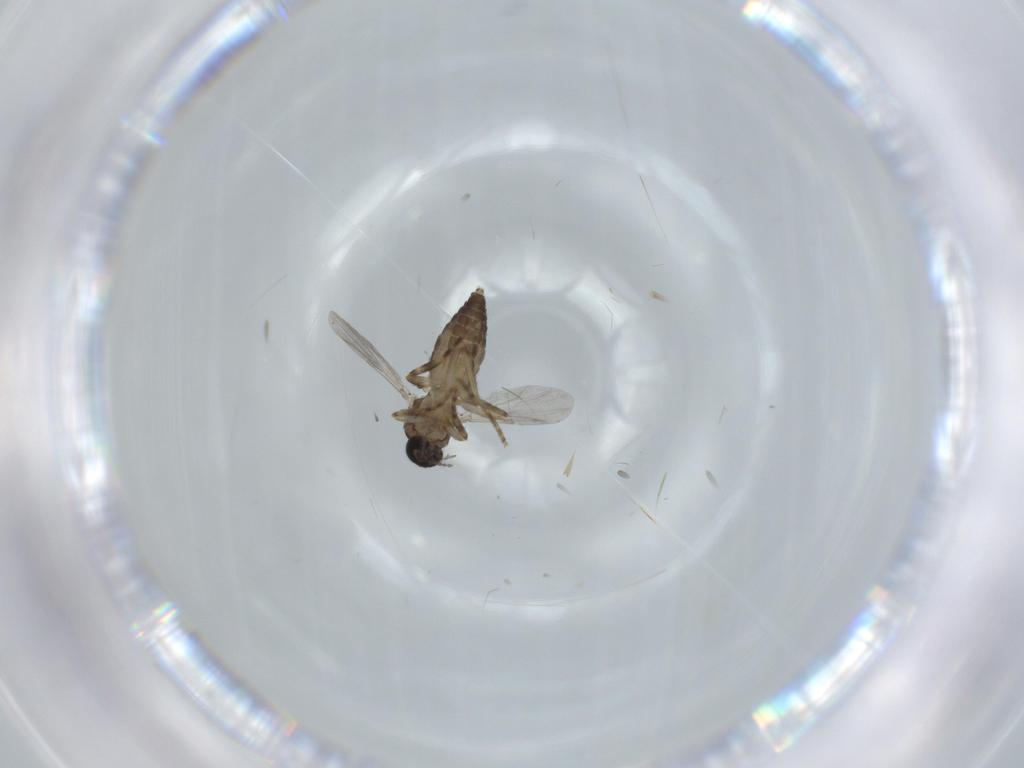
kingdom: Animalia
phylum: Arthropoda
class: Insecta
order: Diptera
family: Ceratopogonidae
